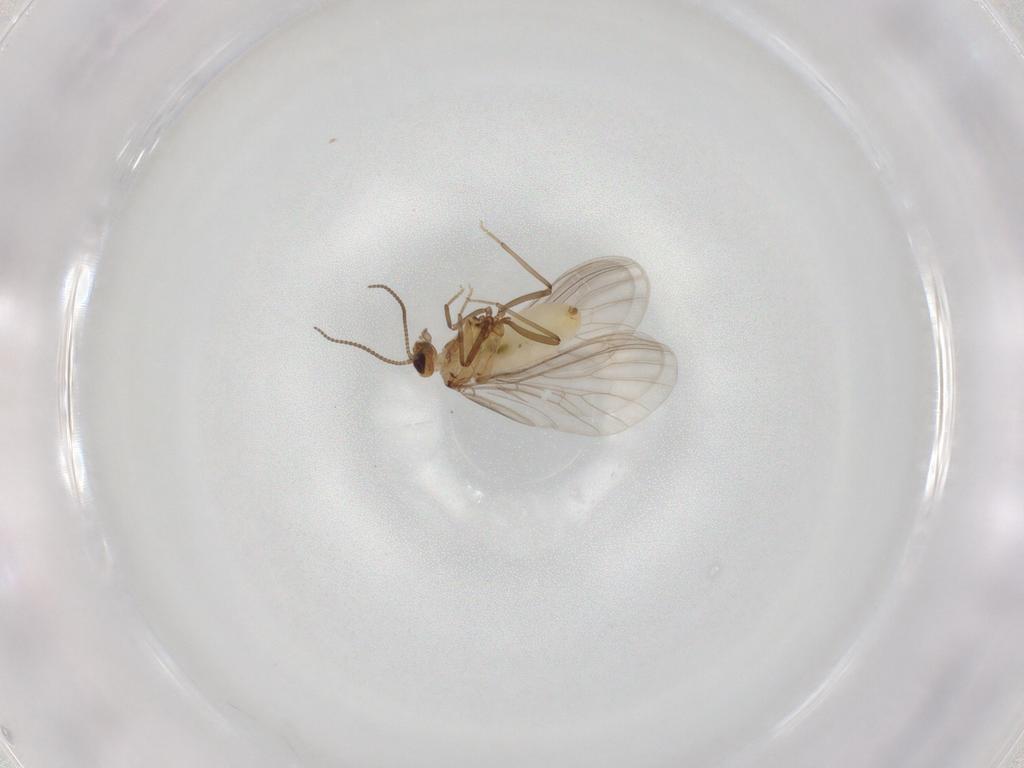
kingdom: Animalia
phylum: Arthropoda
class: Insecta
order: Neuroptera
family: Coniopterygidae
